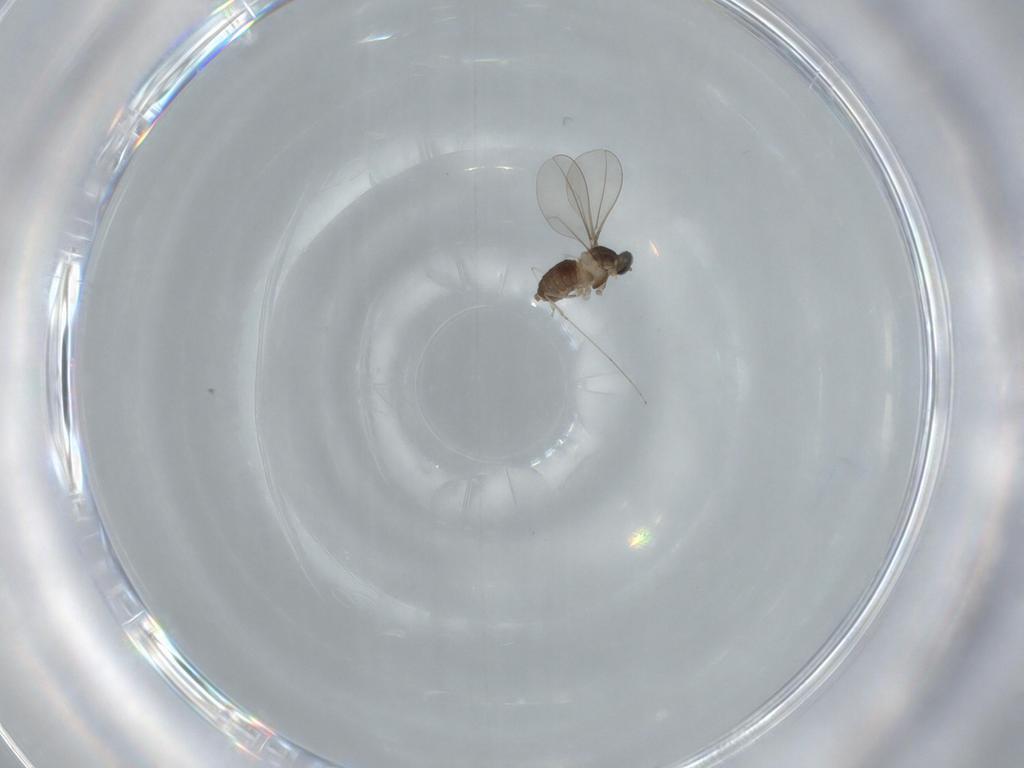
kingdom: Animalia
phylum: Arthropoda
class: Insecta
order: Diptera
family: Cecidomyiidae
